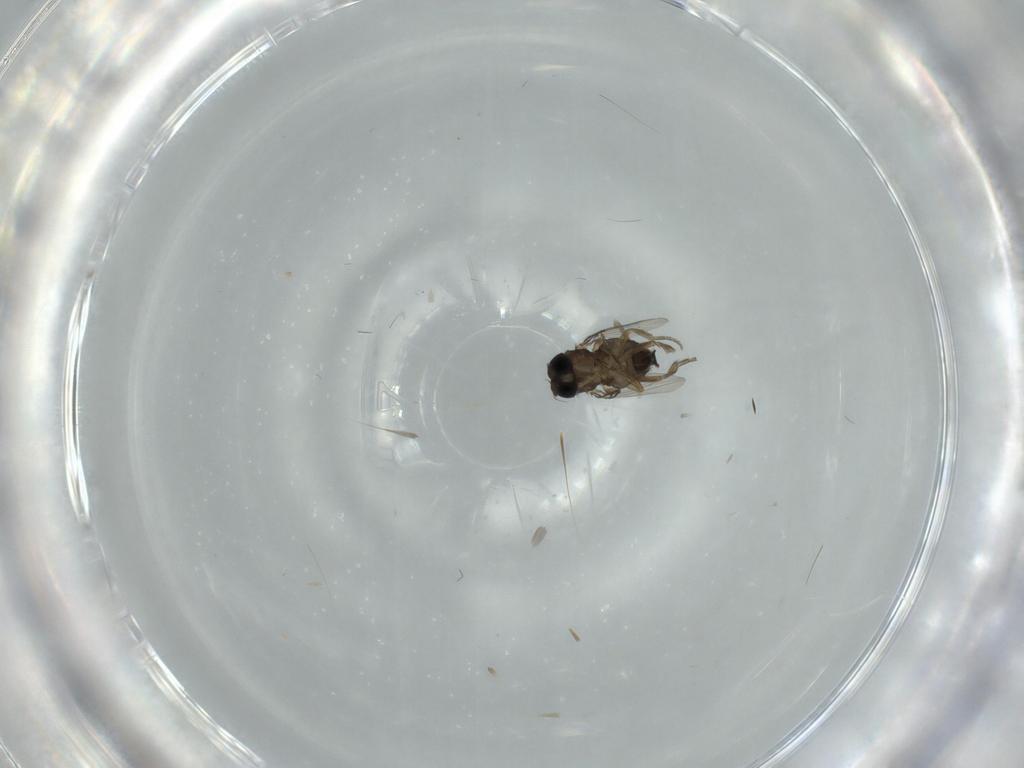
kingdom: Animalia
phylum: Arthropoda
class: Insecta
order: Diptera
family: Phoridae
